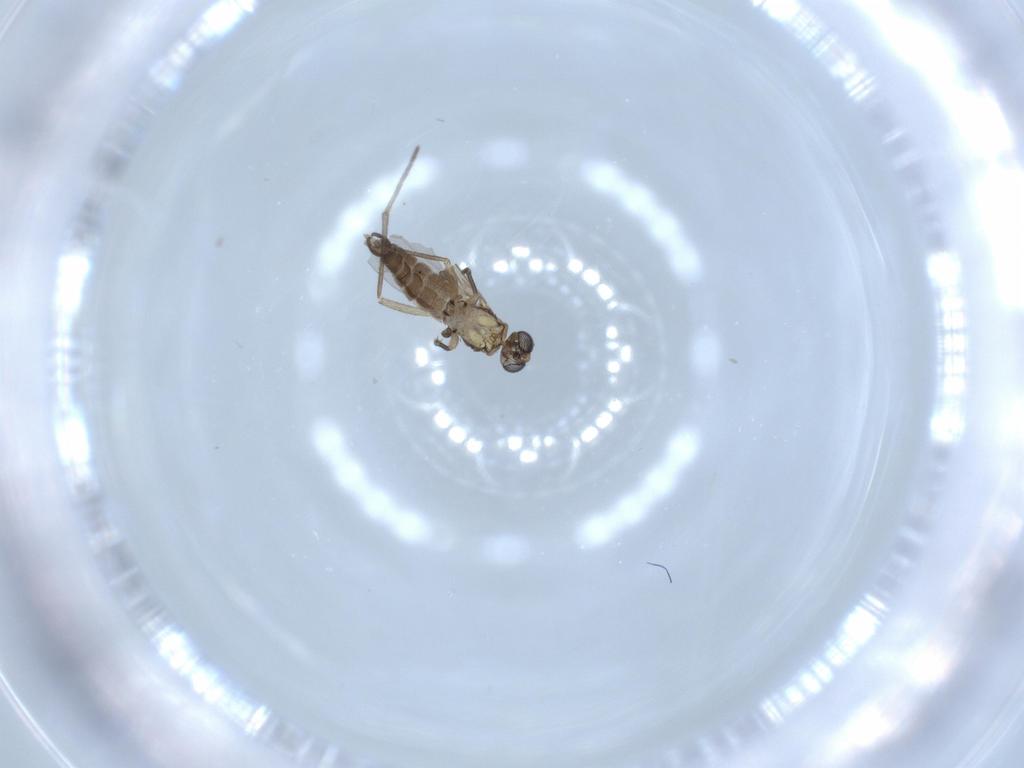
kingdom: Animalia
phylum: Arthropoda
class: Insecta
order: Diptera
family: Sciaridae
